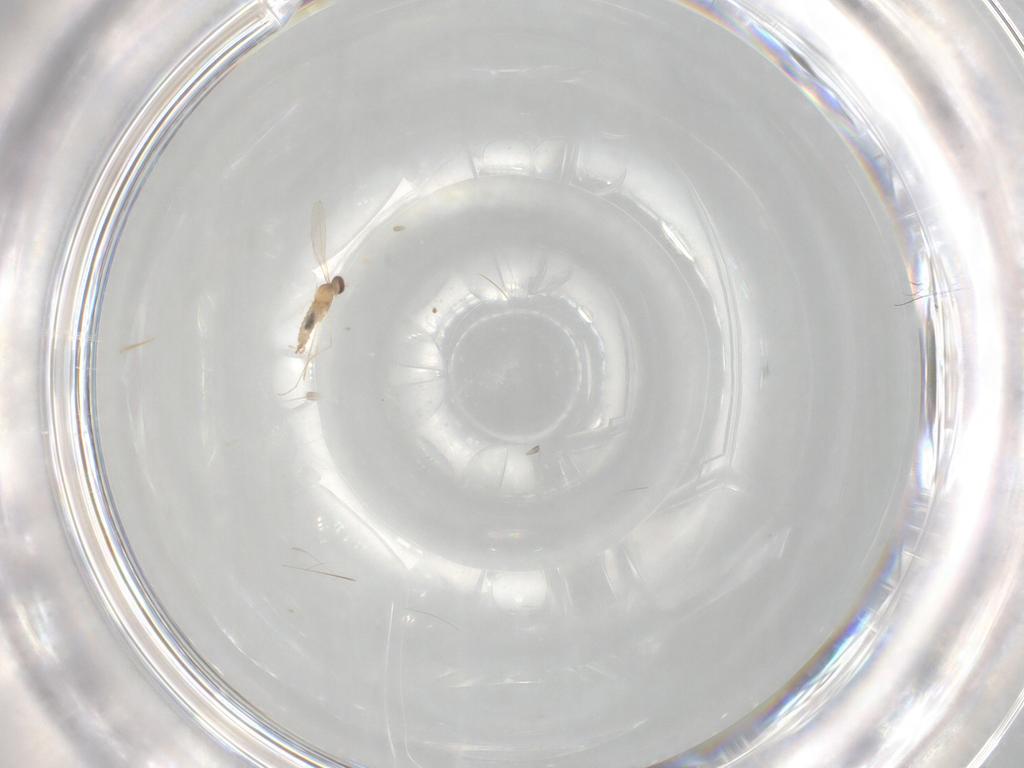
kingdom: Animalia
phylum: Arthropoda
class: Insecta
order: Diptera
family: Cecidomyiidae
